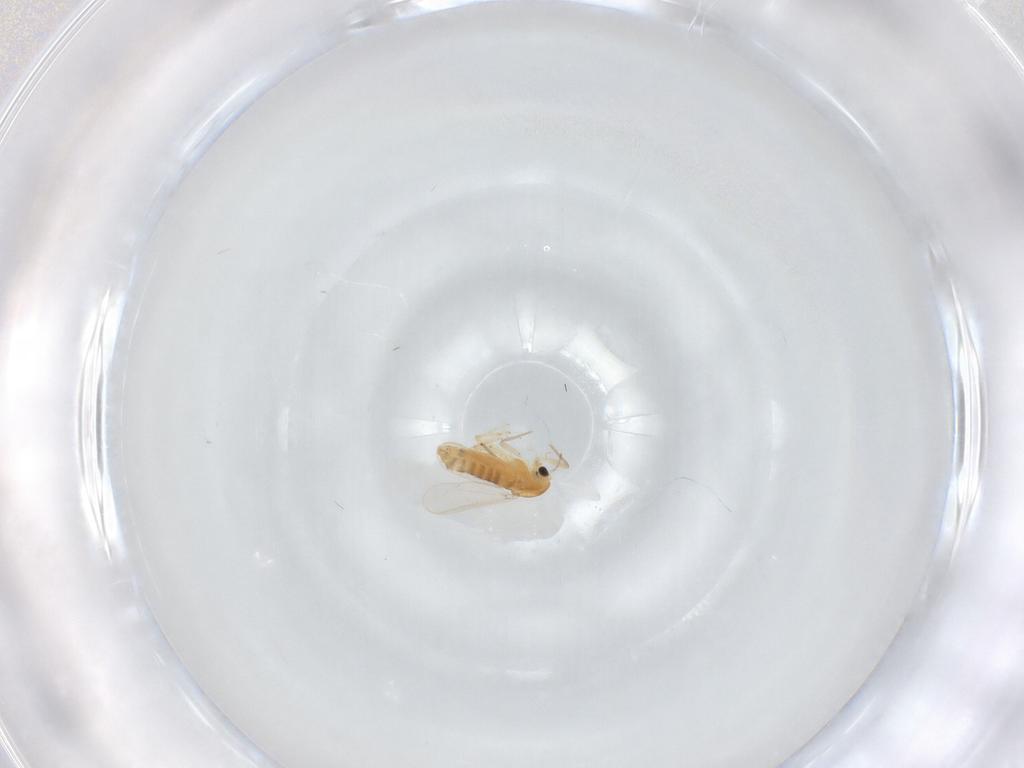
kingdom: Animalia
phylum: Arthropoda
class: Insecta
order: Diptera
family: Chironomidae
